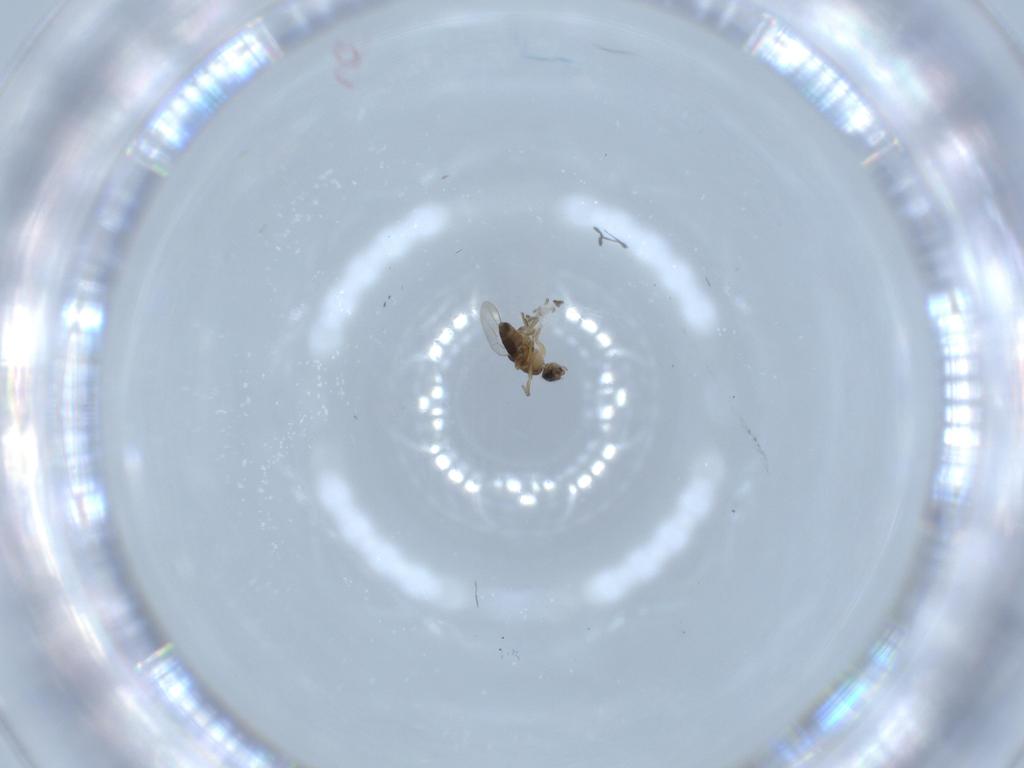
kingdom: Animalia
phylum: Arthropoda
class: Insecta
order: Diptera
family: Phoridae
